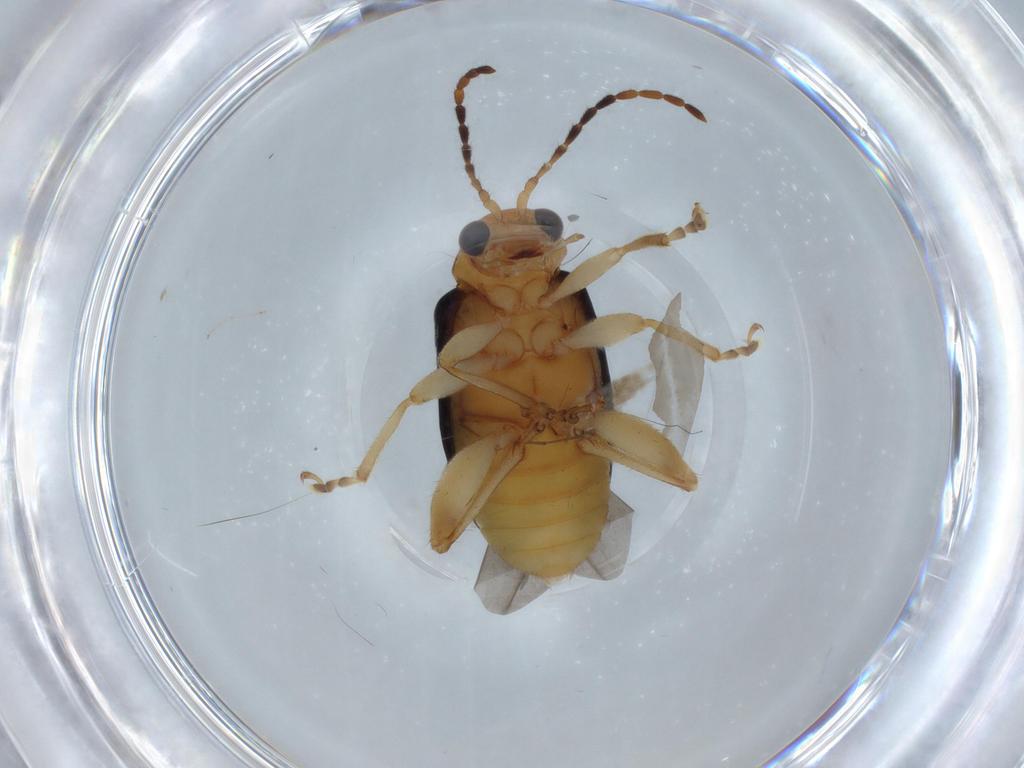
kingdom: Animalia
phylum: Arthropoda
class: Insecta
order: Coleoptera
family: Chrysomelidae
